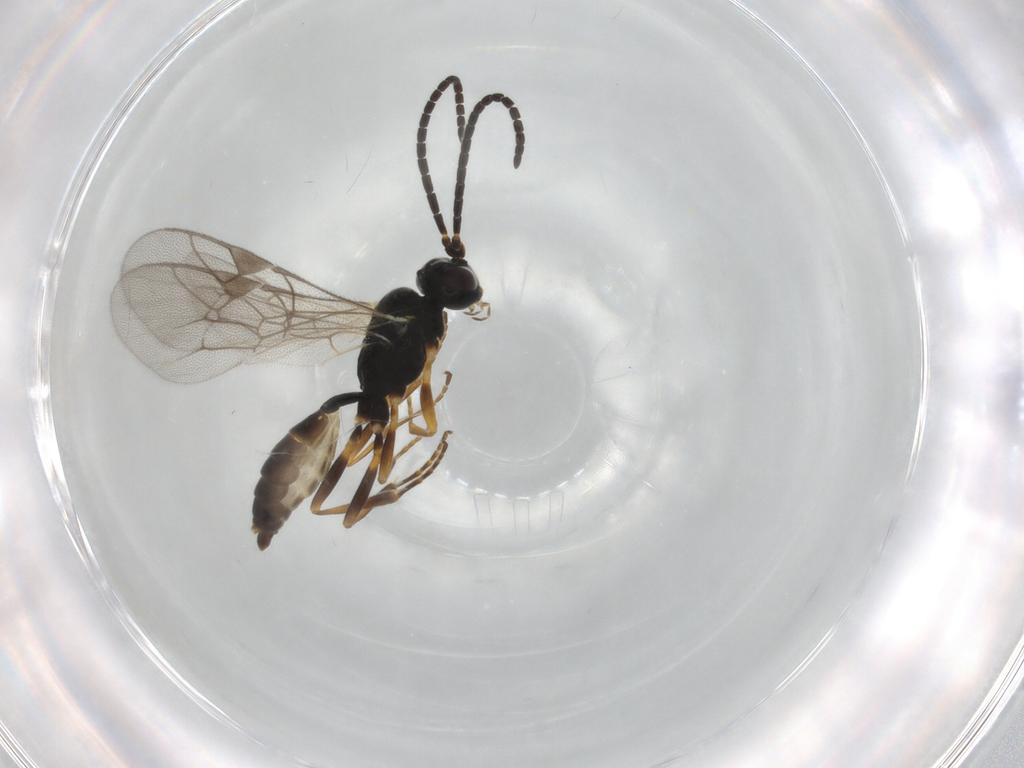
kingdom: Animalia
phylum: Arthropoda
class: Insecta
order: Hymenoptera
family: Ichneumonidae
